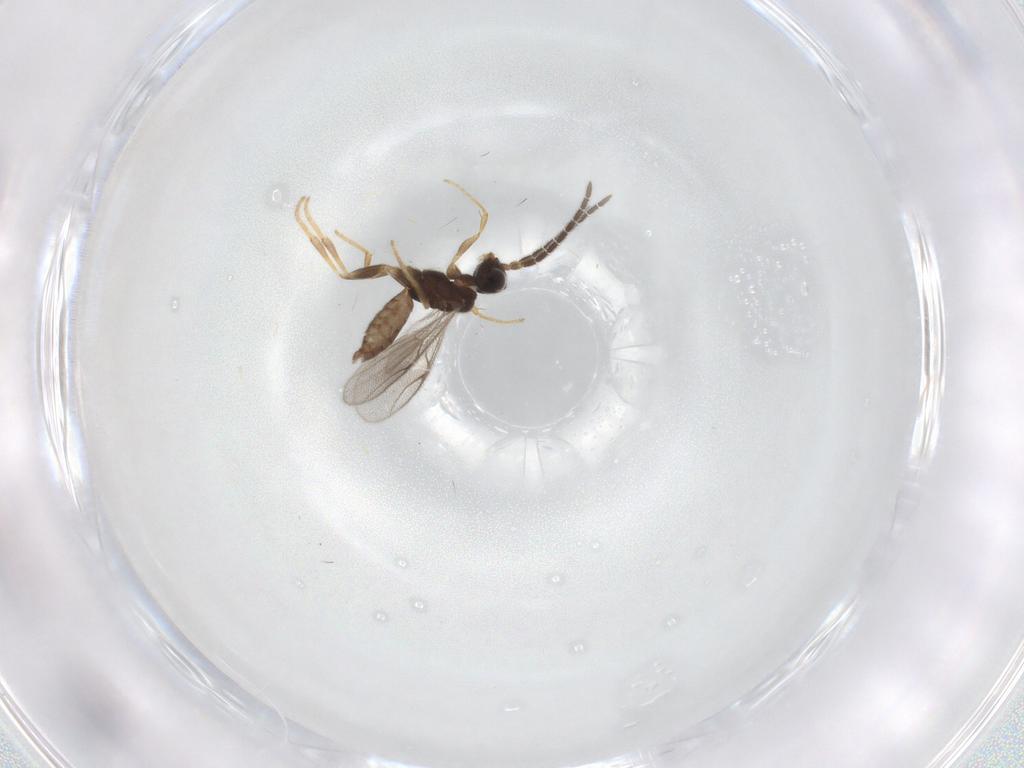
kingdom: Animalia
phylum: Arthropoda
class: Insecta
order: Hymenoptera
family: Dryinidae
